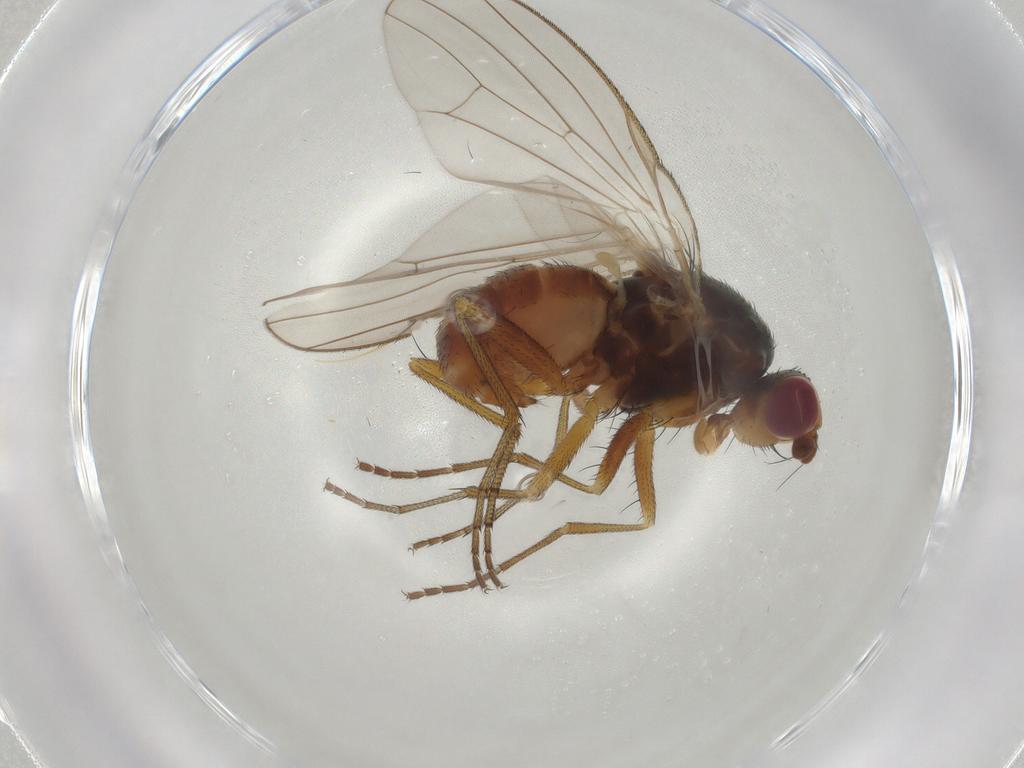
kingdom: Animalia
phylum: Arthropoda
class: Insecta
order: Diptera
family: Heleomyzidae
